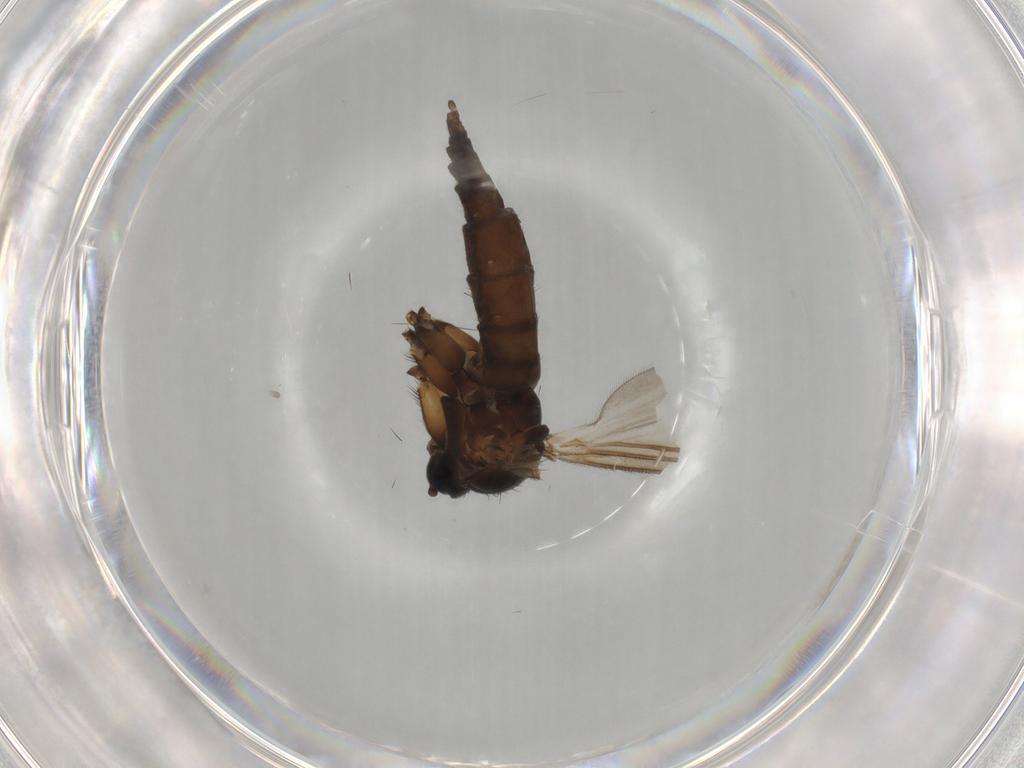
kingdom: Animalia
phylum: Arthropoda
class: Insecta
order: Diptera
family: Sciaridae
